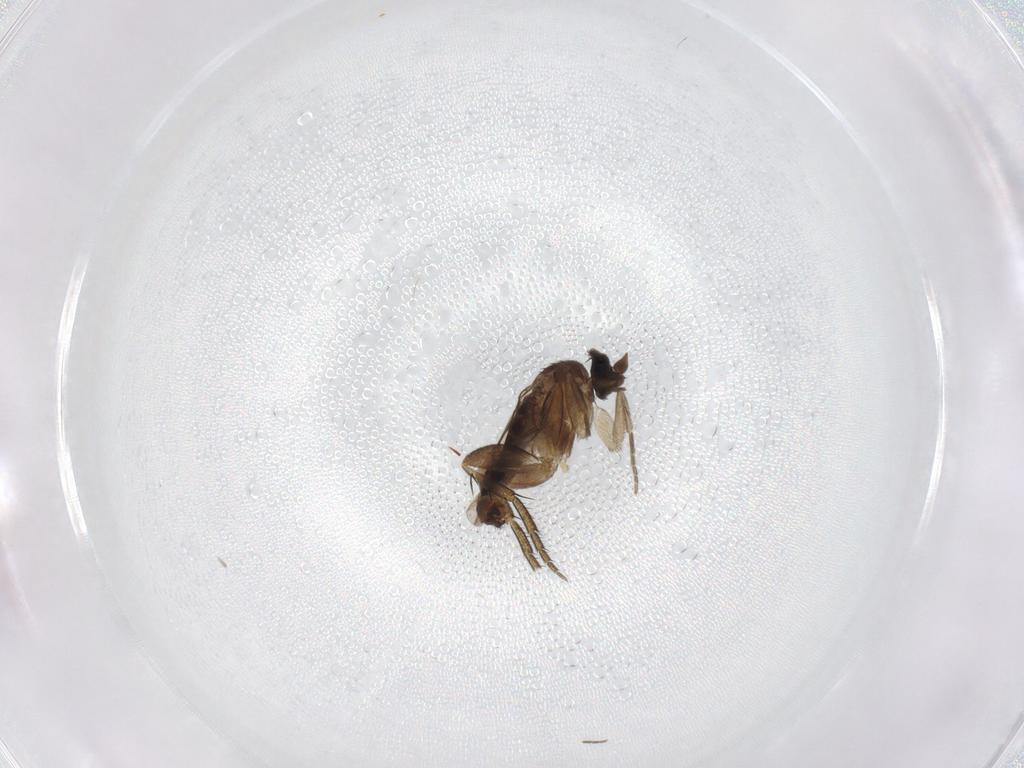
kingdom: Animalia
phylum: Arthropoda
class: Insecta
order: Diptera
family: Phoridae
